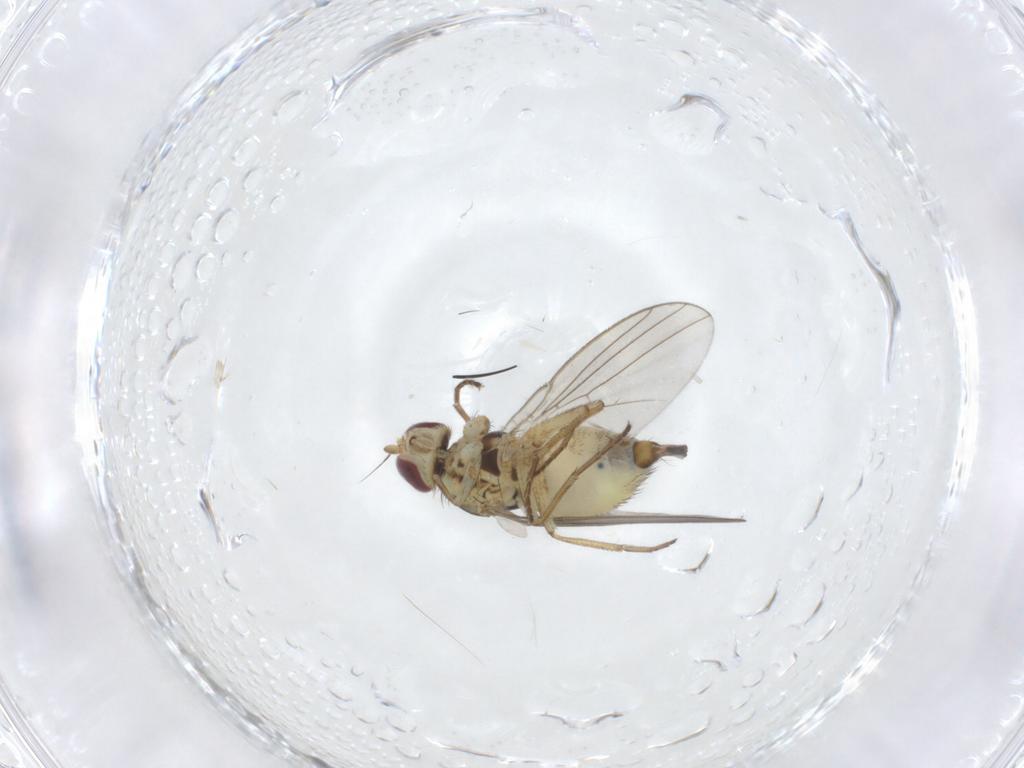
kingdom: Animalia
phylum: Arthropoda
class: Insecta
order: Diptera
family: Agromyzidae
